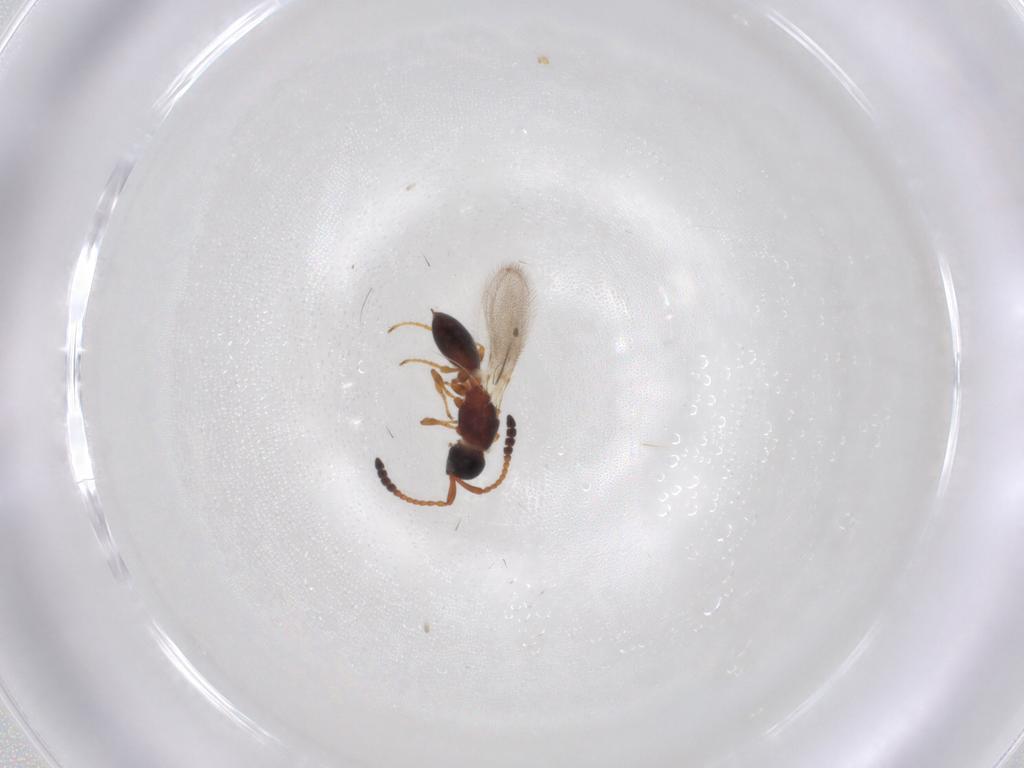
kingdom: Animalia
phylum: Arthropoda
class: Insecta
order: Hymenoptera
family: Diapriidae
